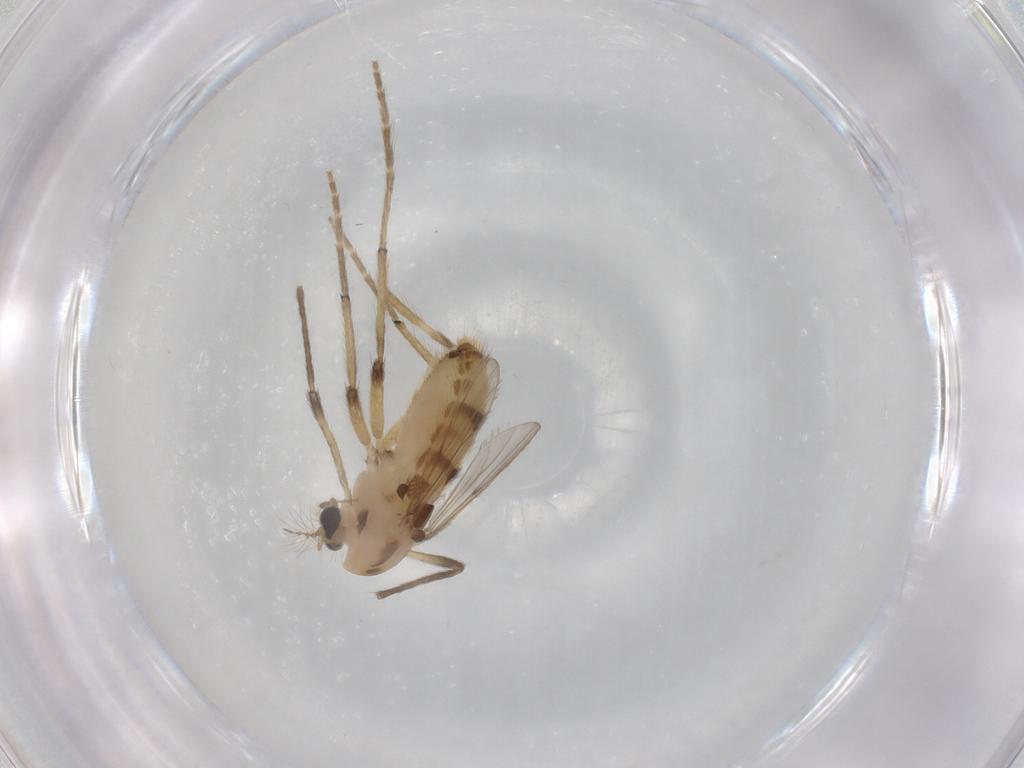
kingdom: Animalia
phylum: Arthropoda
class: Insecta
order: Diptera
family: Chironomidae
